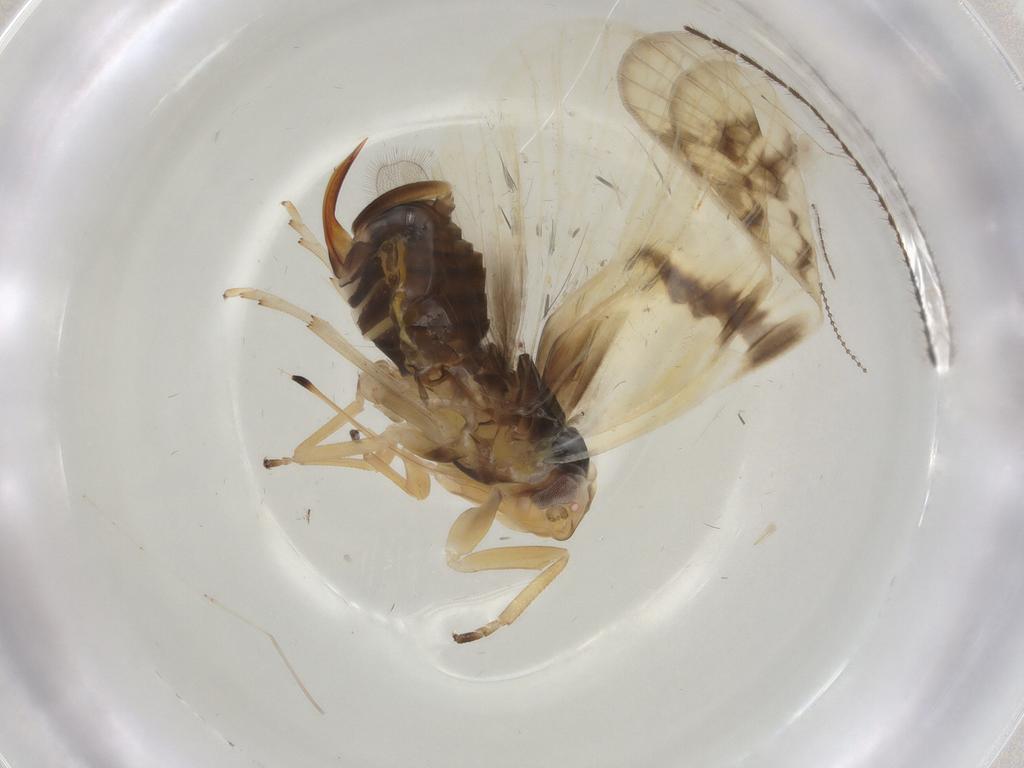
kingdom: Animalia
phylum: Arthropoda
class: Insecta
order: Hemiptera
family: Cixiidae
